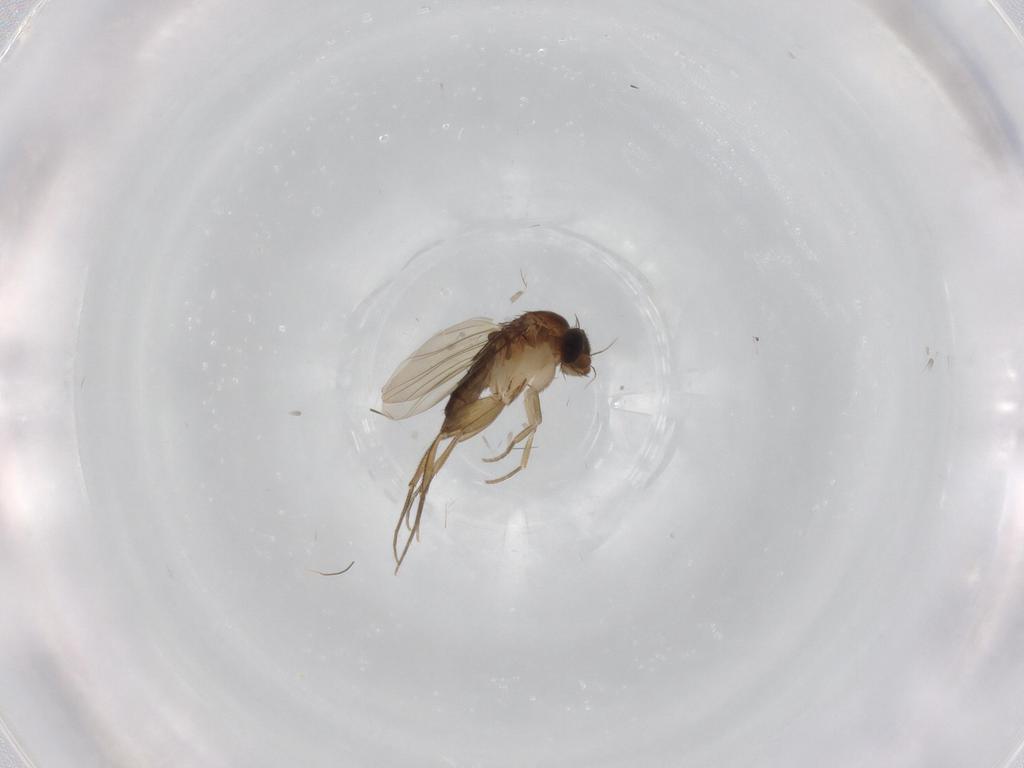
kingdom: Animalia
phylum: Arthropoda
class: Insecta
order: Diptera
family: Phoridae
